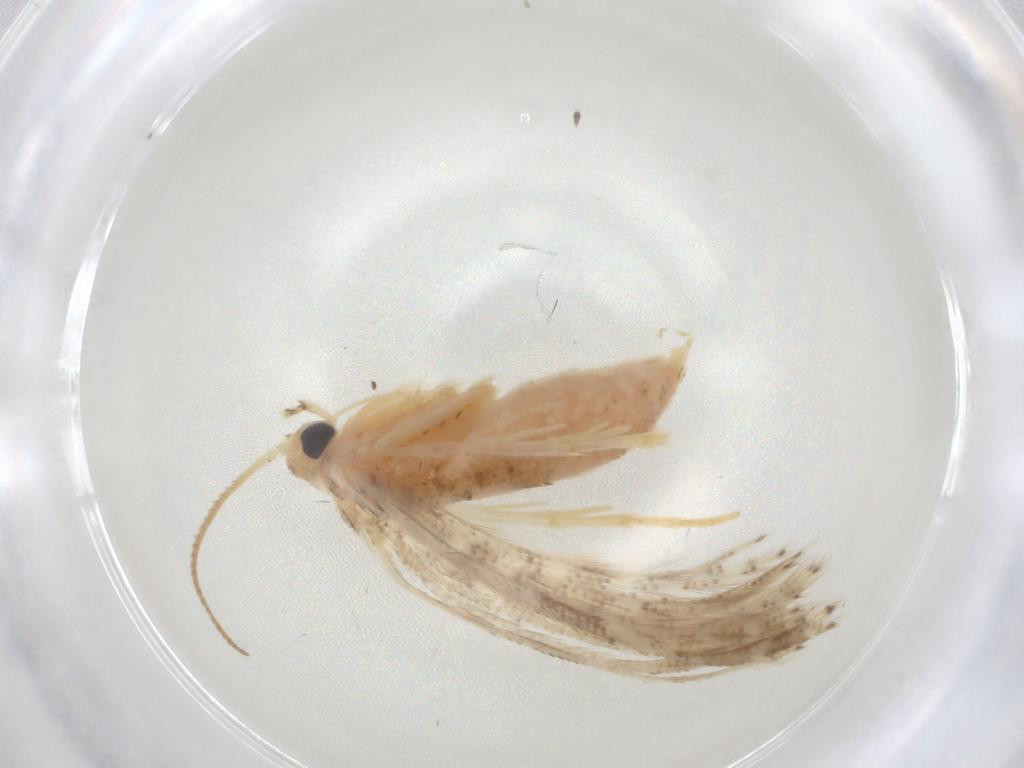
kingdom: Animalia
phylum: Arthropoda
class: Insecta
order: Lepidoptera
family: Alucitidae
